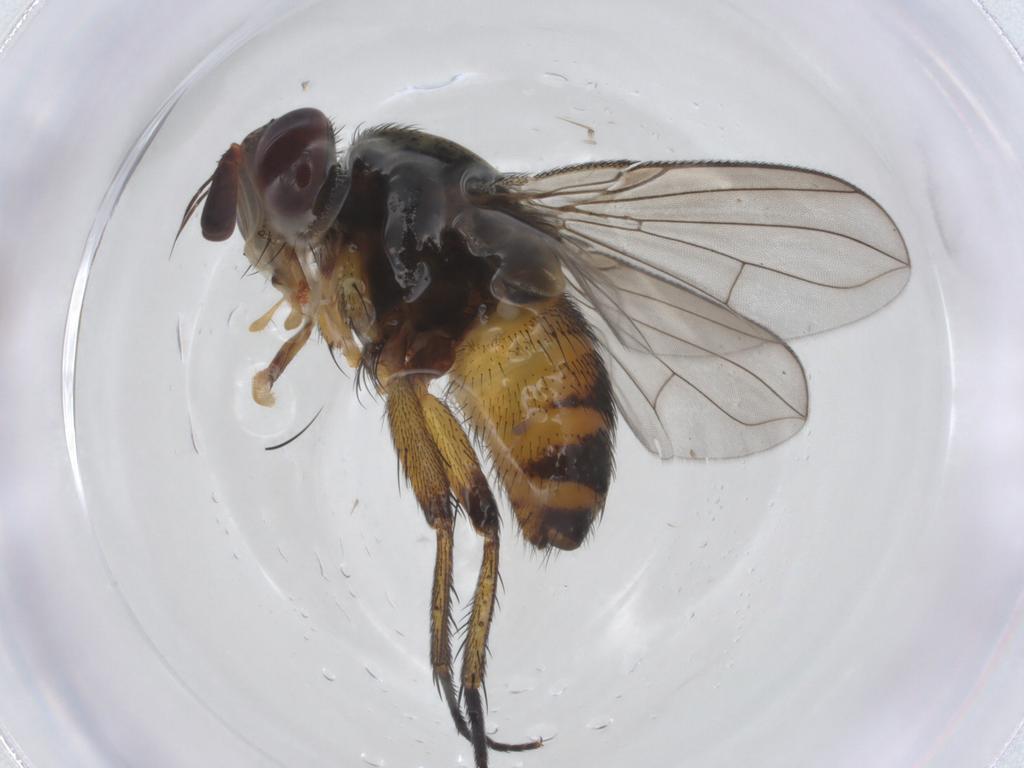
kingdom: Animalia
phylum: Arthropoda
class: Insecta
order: Diptera
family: Tachinidae
